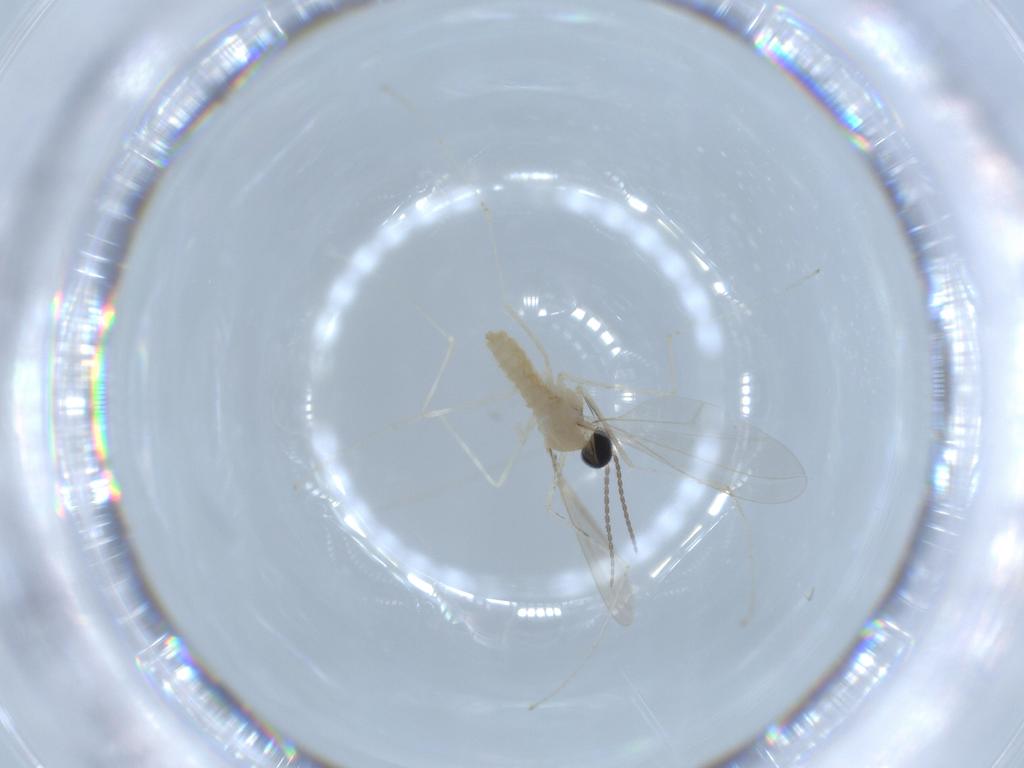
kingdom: Animalia
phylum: Arthropoda
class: Insecta
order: Diptera
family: Cecidomyiidae
